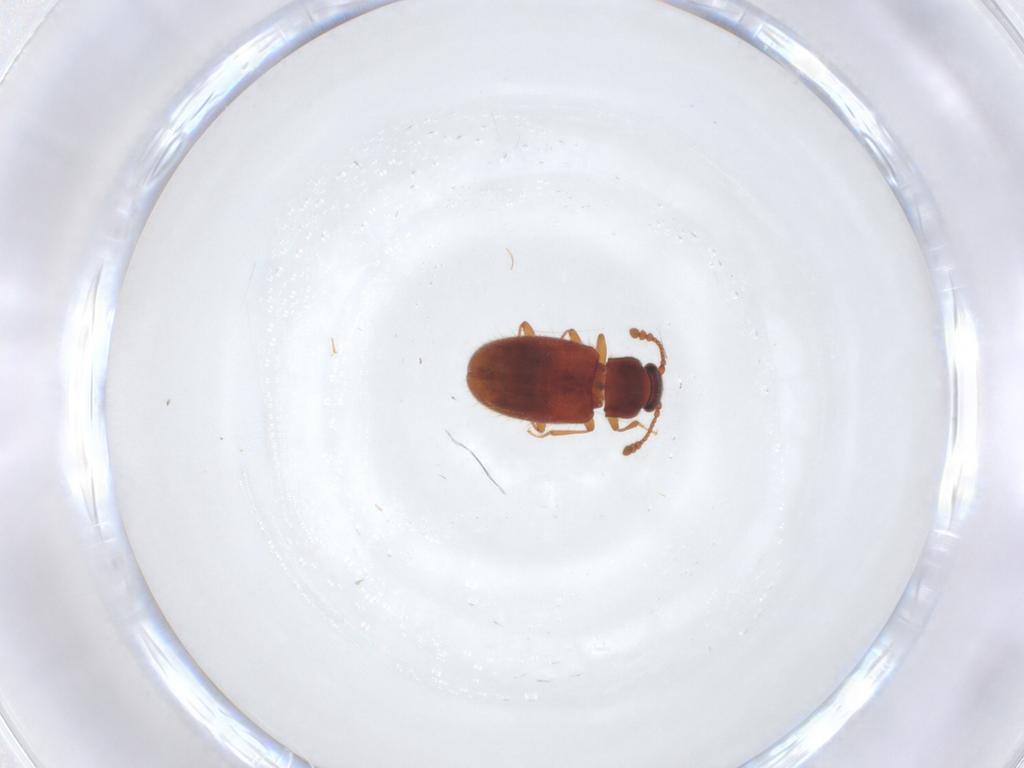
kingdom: Animalia
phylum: Arthropoda
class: Insecta
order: Coleoptera
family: Cryptophagidae
